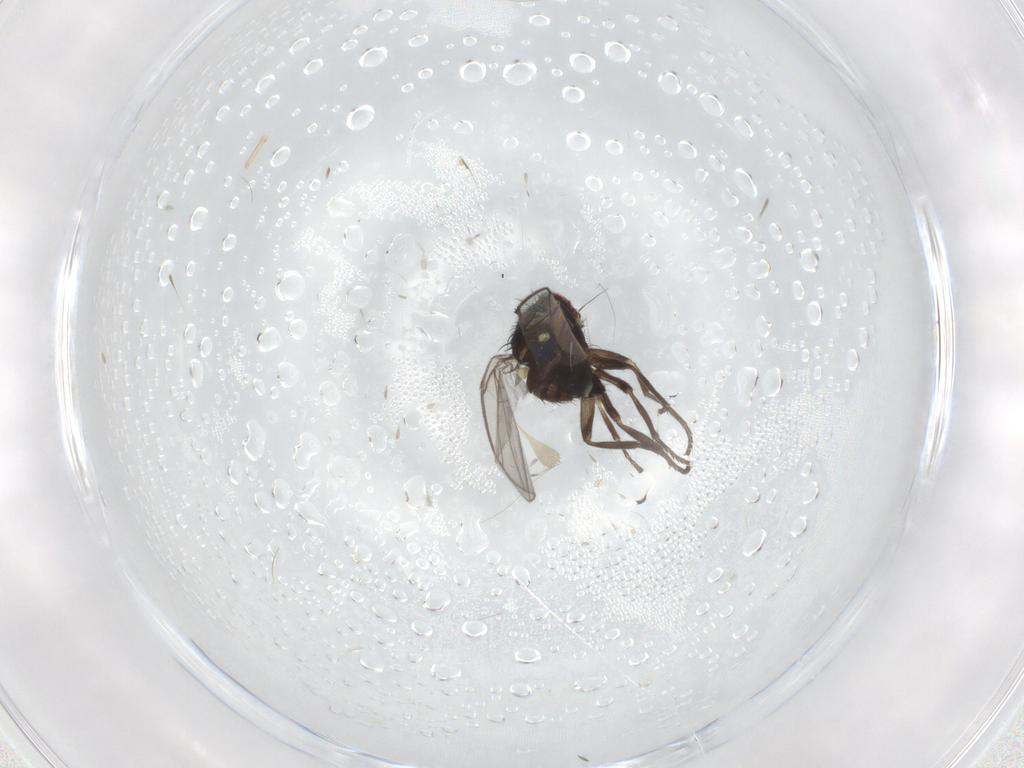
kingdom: Animalia
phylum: Arthropoda
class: Insecta
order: Diptera
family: Agromyzidae
